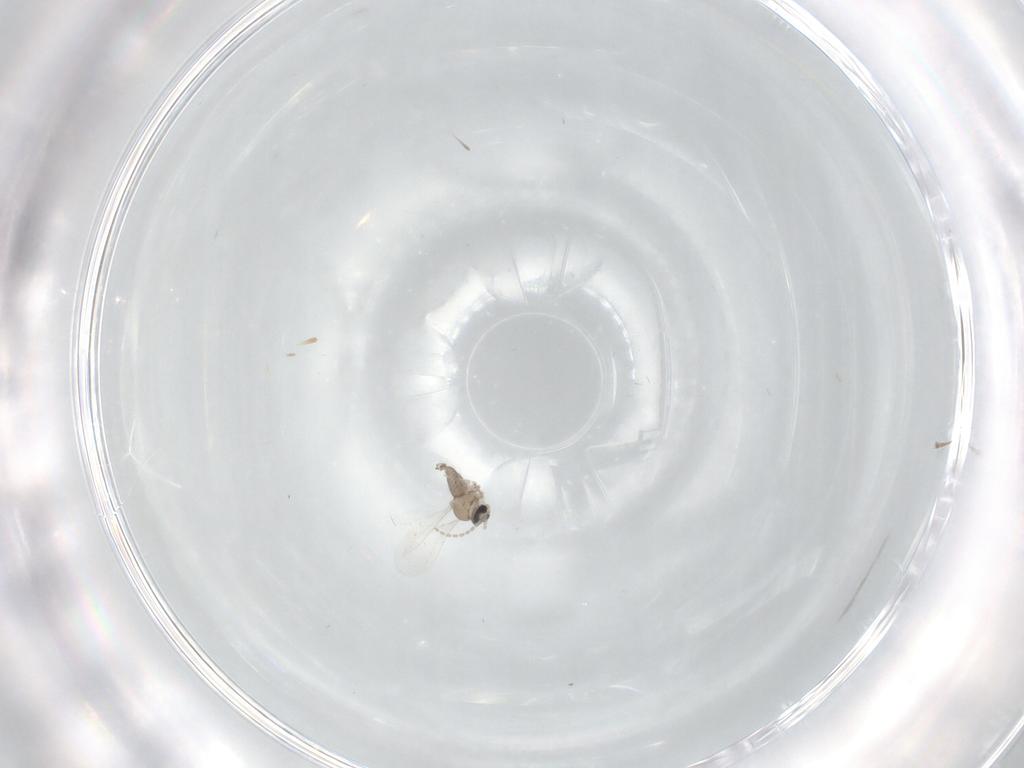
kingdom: Animalia
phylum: Arthropoda
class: Insecta
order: Diptera
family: Cecidomyiidae
